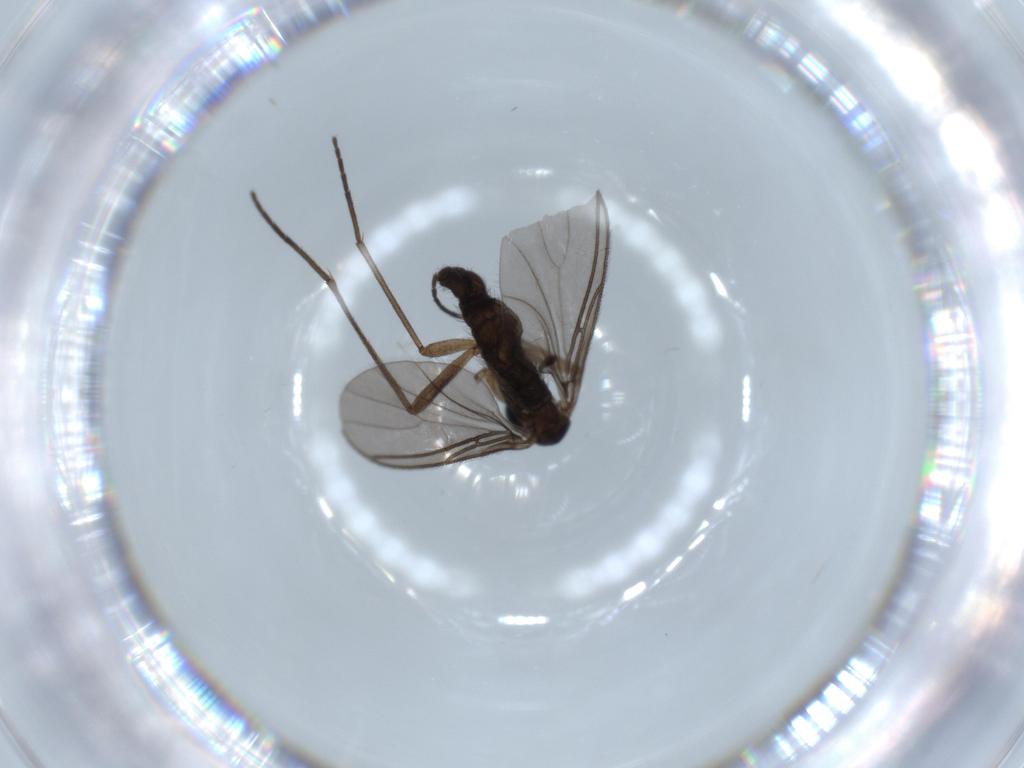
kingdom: Animalia
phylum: Arthropoda
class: Insecta
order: Diptera
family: Sciaridae
